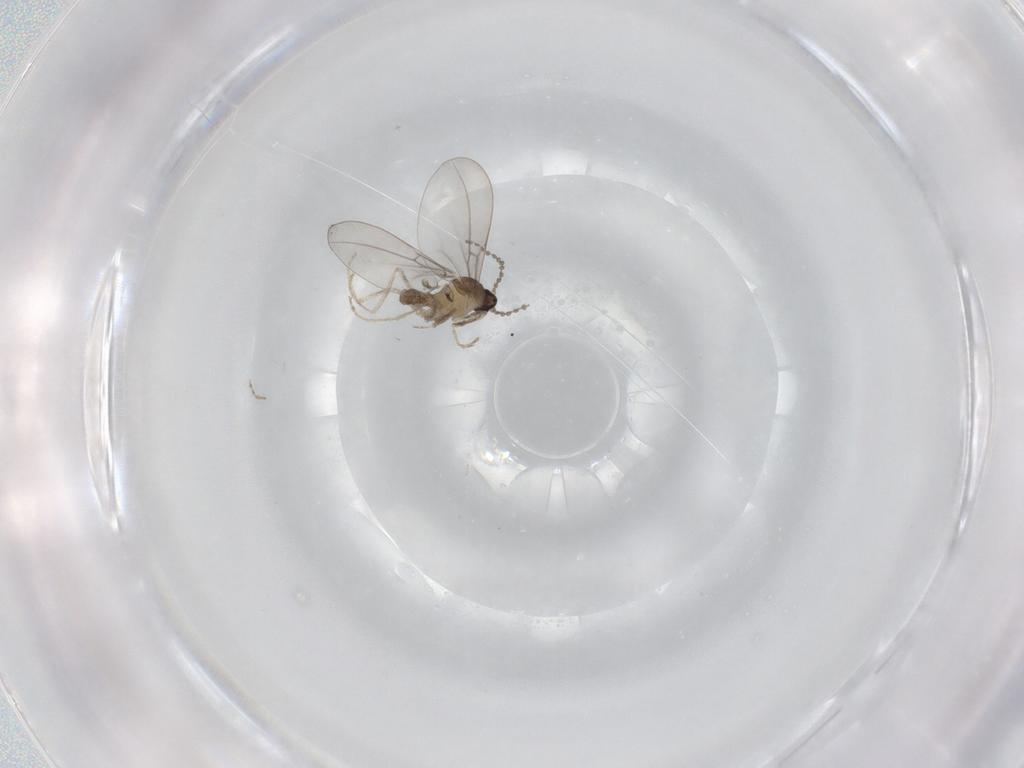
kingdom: Animalia
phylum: Arthropoda
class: Insecta
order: Diptera
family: Cecidomyiidae
